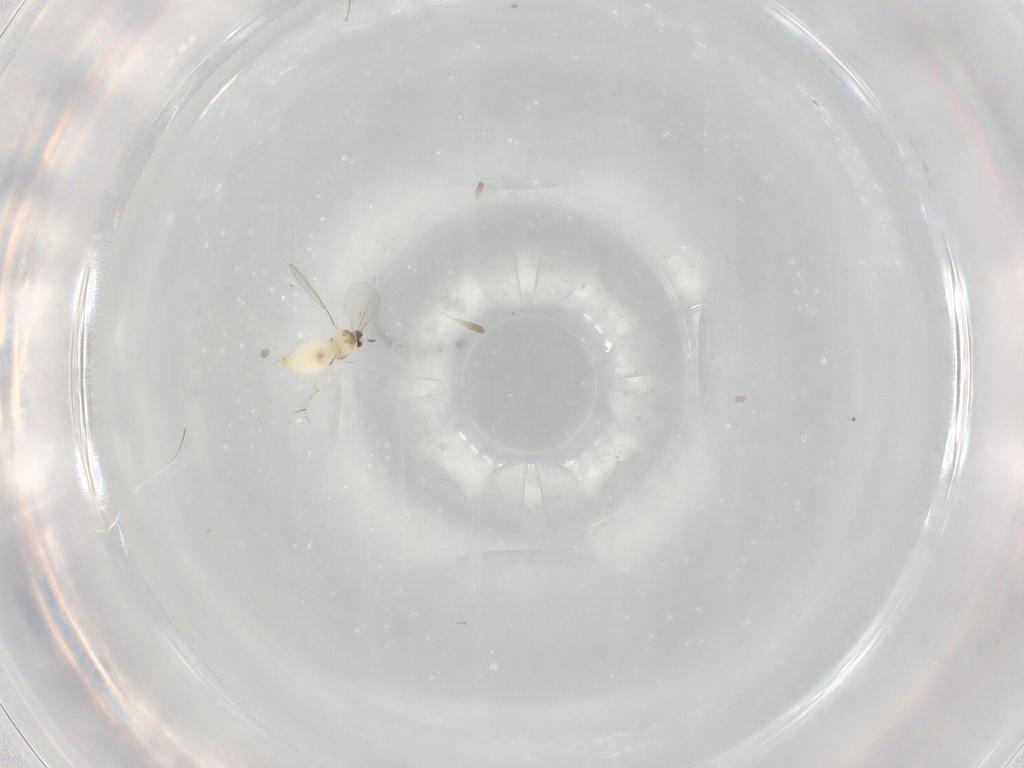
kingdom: Animalia
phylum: Arthropoda
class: Insecta
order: Diptera
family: Cecidomyiidae
